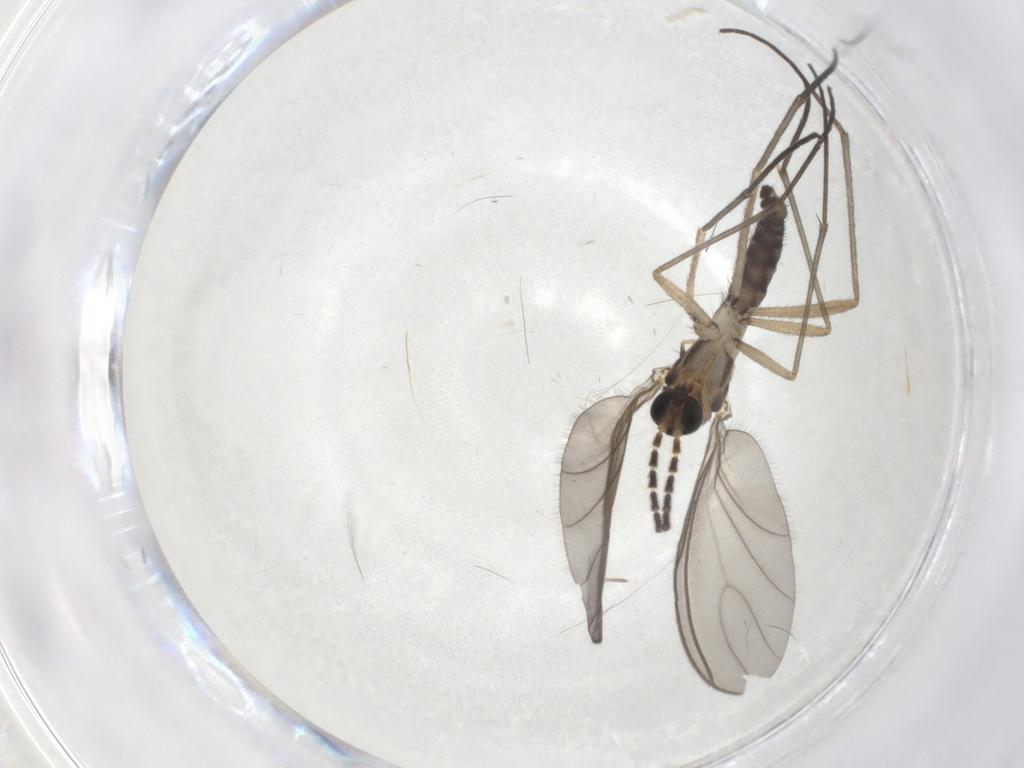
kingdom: Animalia
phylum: Arthropoda
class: Insecta
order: Diptera
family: Sciaridae
